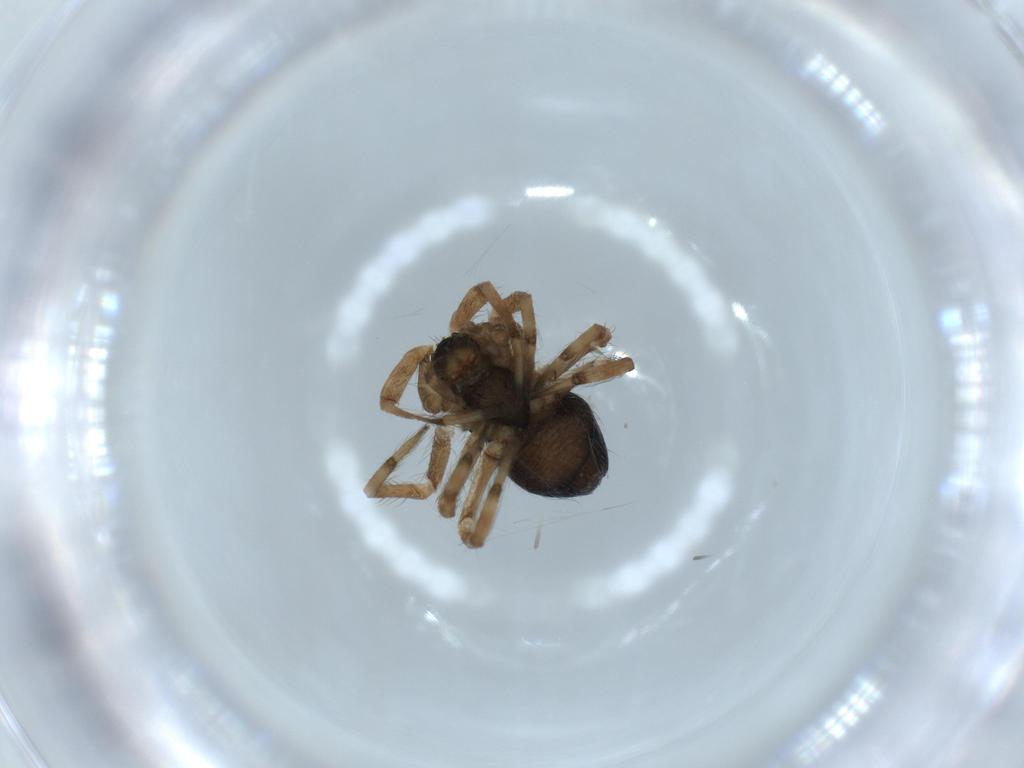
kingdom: Animalia
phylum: Arthropoda
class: Arachnida
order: Araneae
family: Desidae
